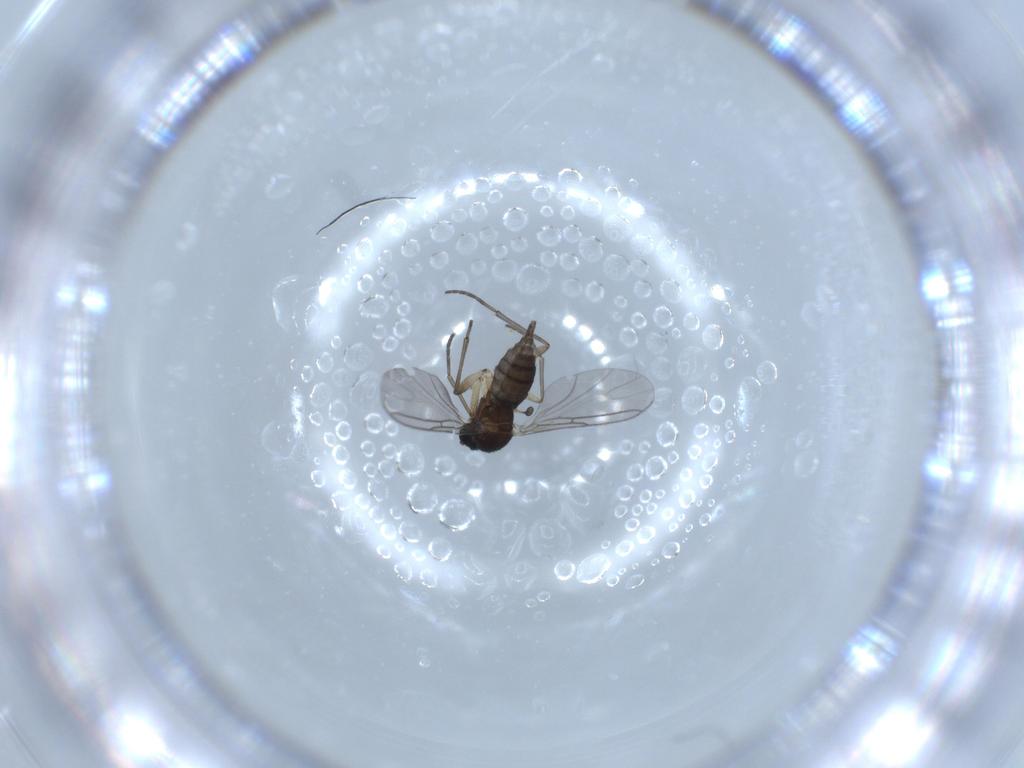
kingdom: Animalia
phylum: Arthropoda
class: Insecta
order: Diptera
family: Sciaridae
